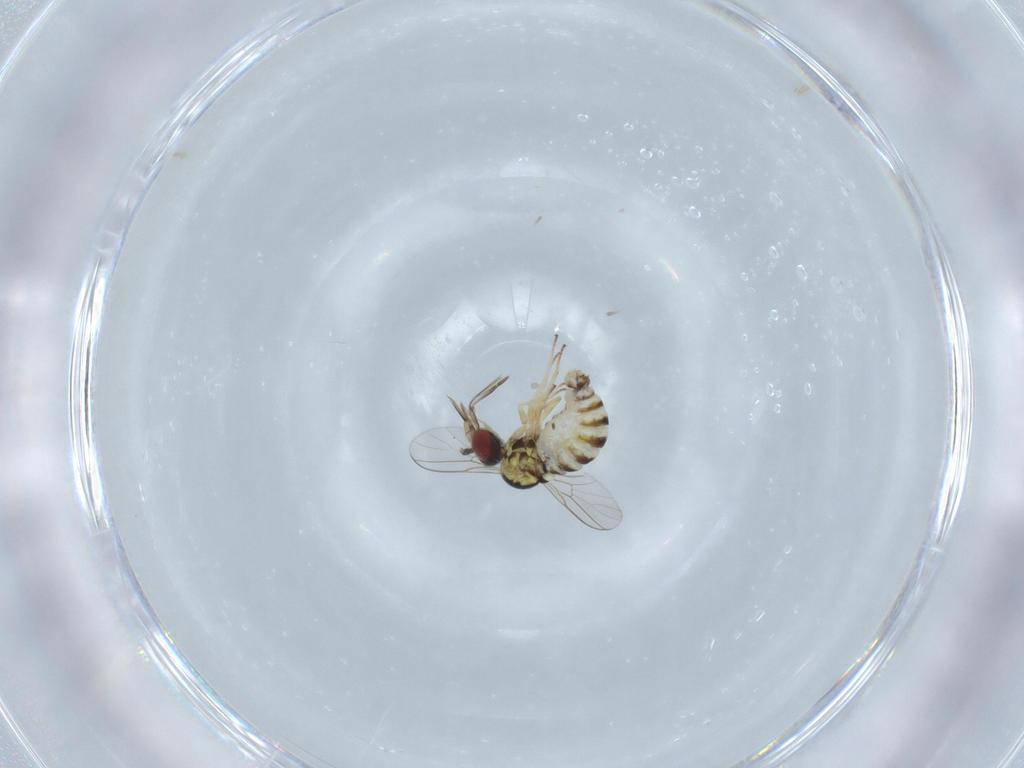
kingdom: Animalia
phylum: Arthropoda
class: Insecta
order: Diptera
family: Bombyliidae
